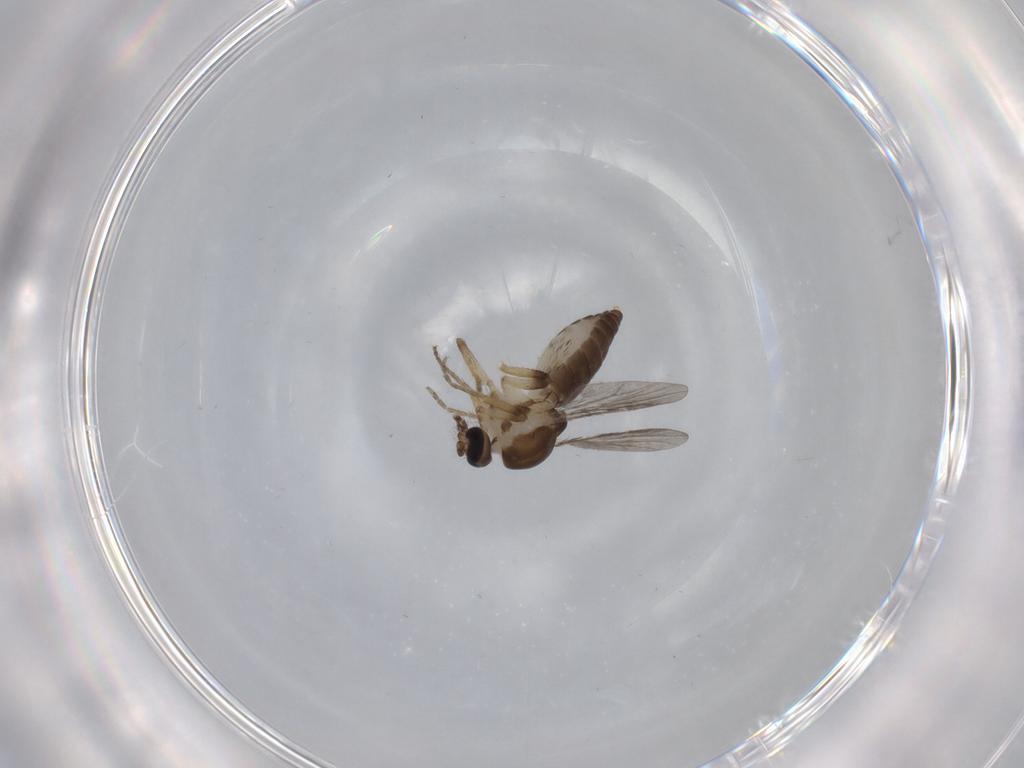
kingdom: Animalia
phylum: Arthropoda
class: Insecta
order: Diptera
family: Ceratopogonidae
